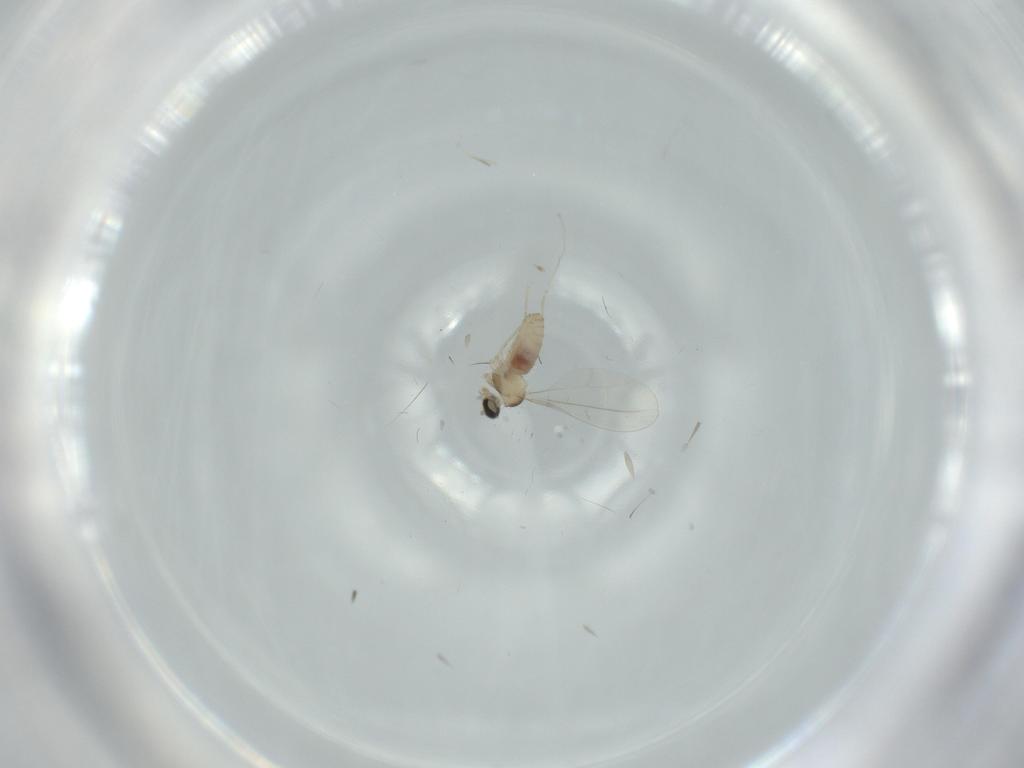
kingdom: Animalia
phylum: Arthropoda
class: Insecta
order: Diptera
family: Cecidomyiidae
